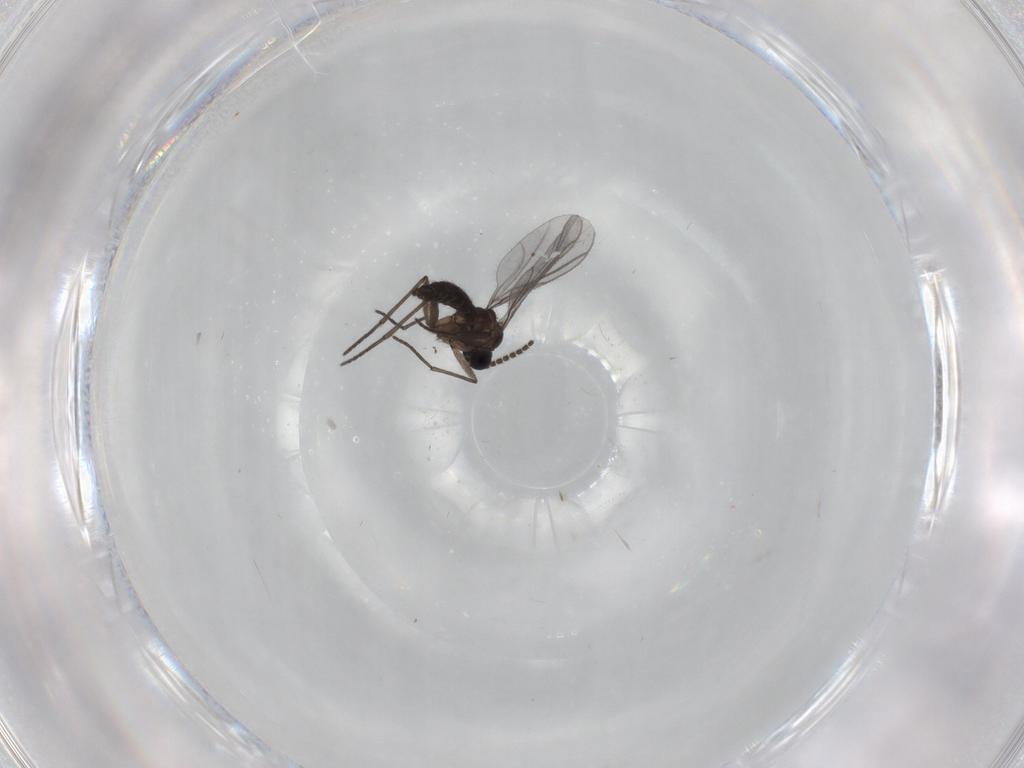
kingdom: Animalia
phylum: Arthropoda
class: Insecta
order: Diptera
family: Cecidomyiidae
